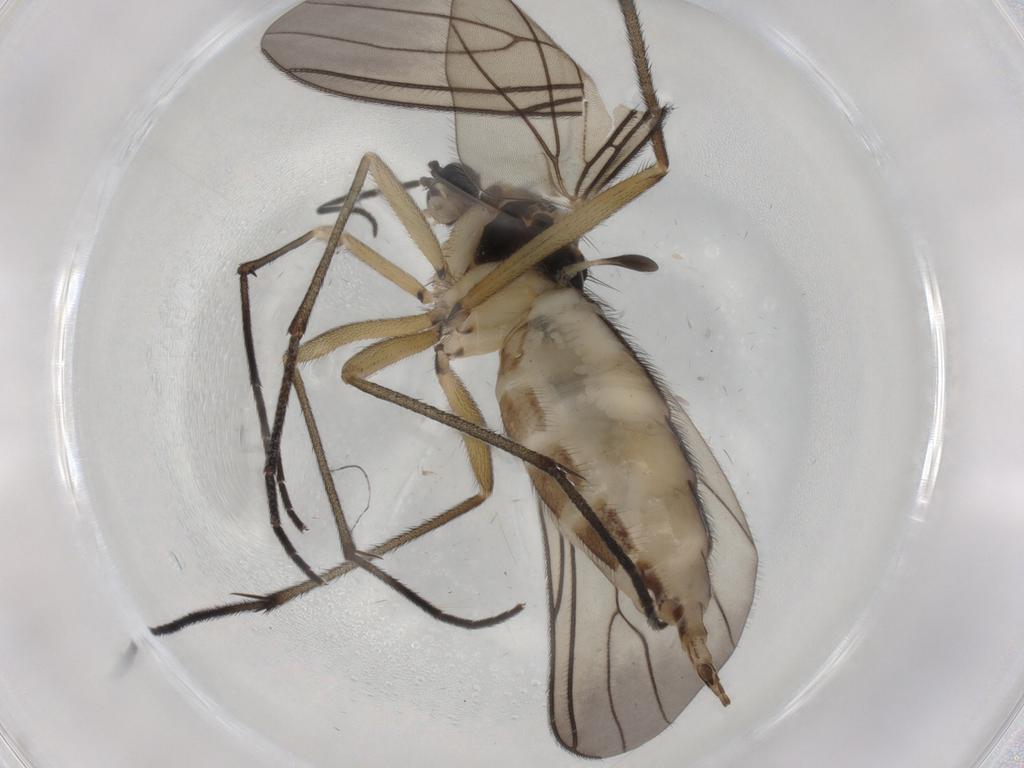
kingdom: Animalia
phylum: Arthropoda
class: Insecta
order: Diptera
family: Sciaridae
